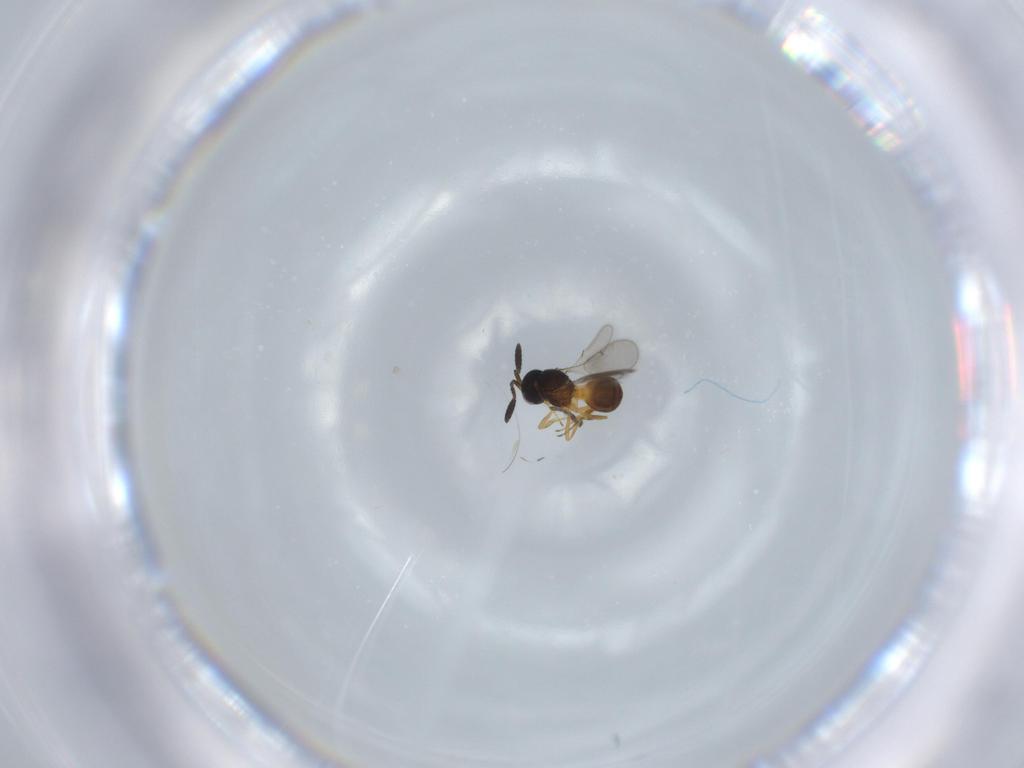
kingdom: Animalia
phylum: Arthropoda
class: Insecta
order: Hymenoptera
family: Scelionidae
